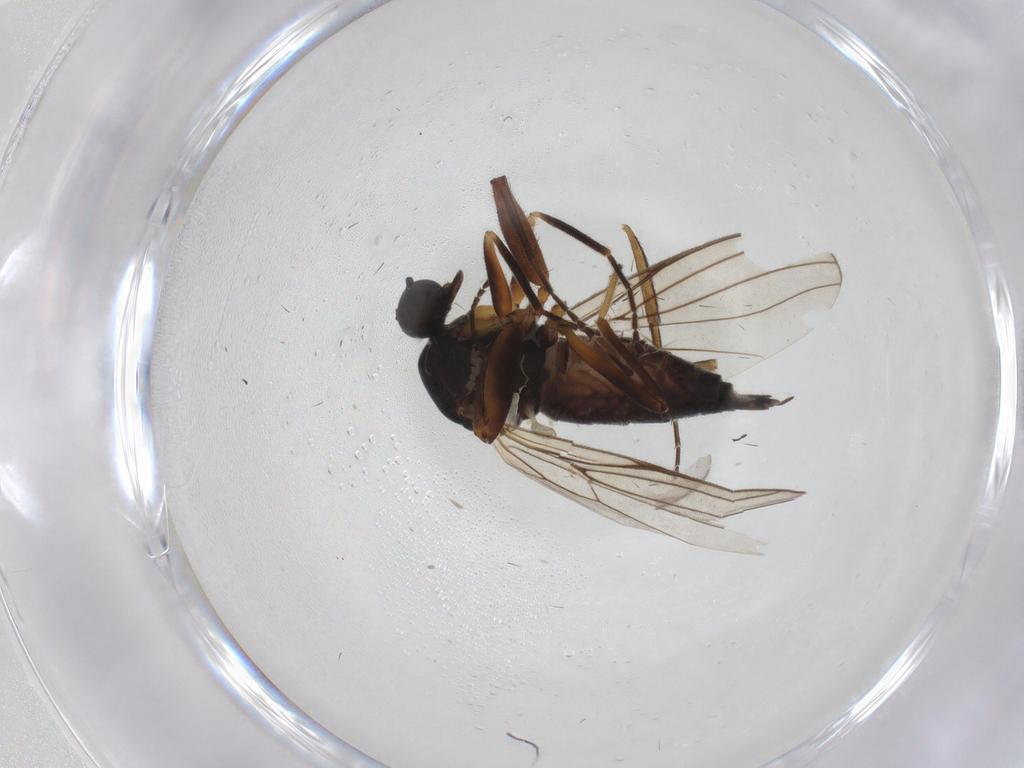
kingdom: Animalia
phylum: Arthropoda
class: Insecta
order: Diptera
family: Hybotidae
